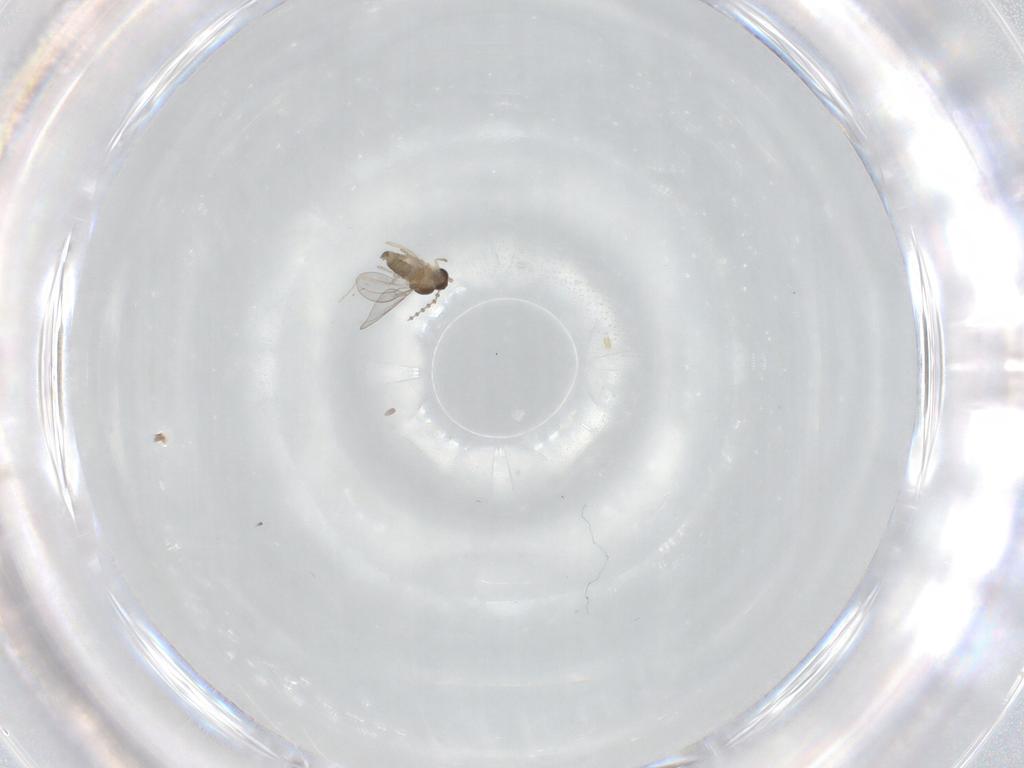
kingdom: Animalia
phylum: Arthropoda
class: Insecta
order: Diptera
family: Cecidomyiidae
